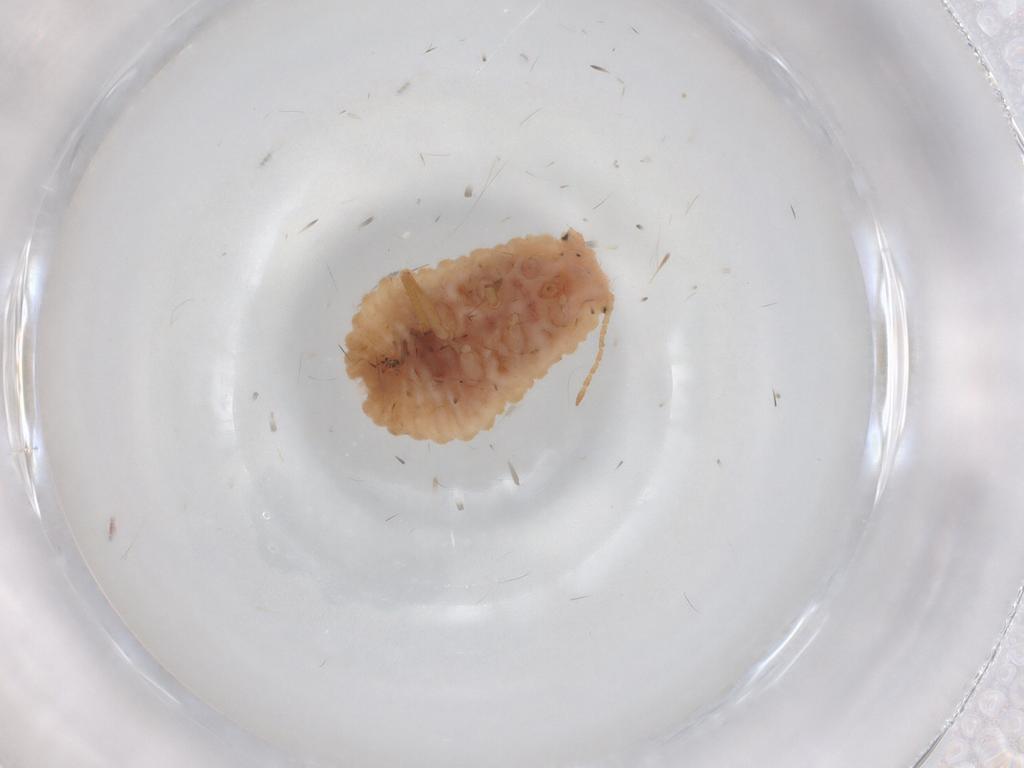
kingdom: Animalia
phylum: Arthropoda
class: Insecta
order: Hemiptera
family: Coccoidea_incertae_sedis
